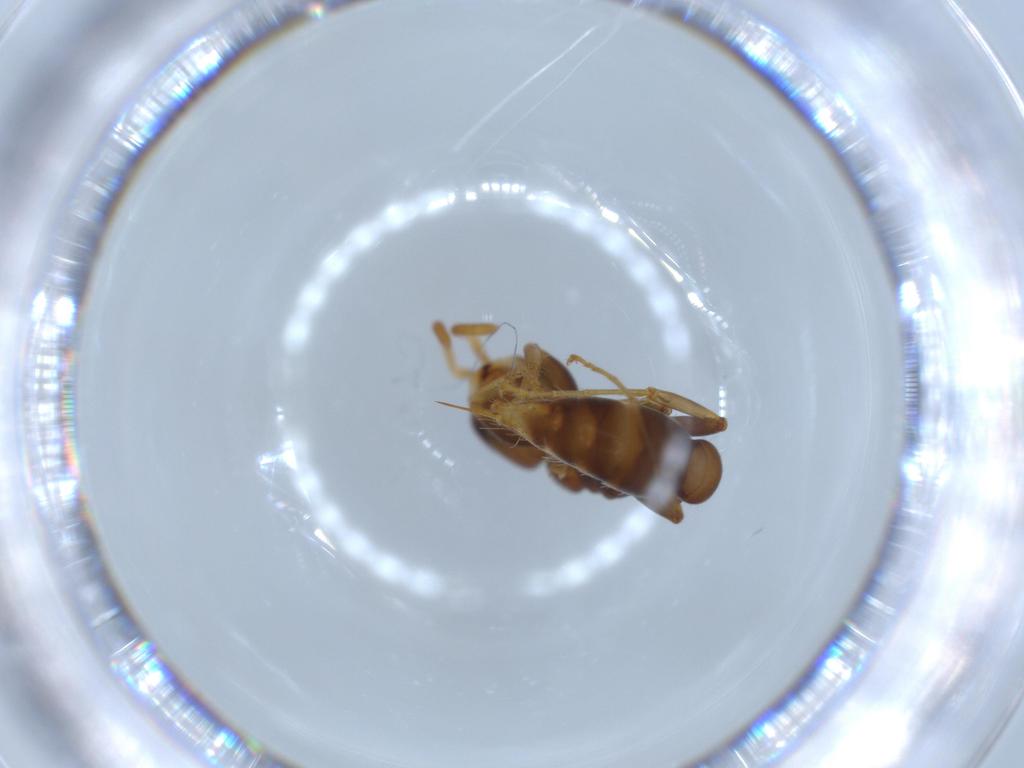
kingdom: Animalia
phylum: Arthropoda
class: Insecta
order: Hymenoptera
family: Formicidae
